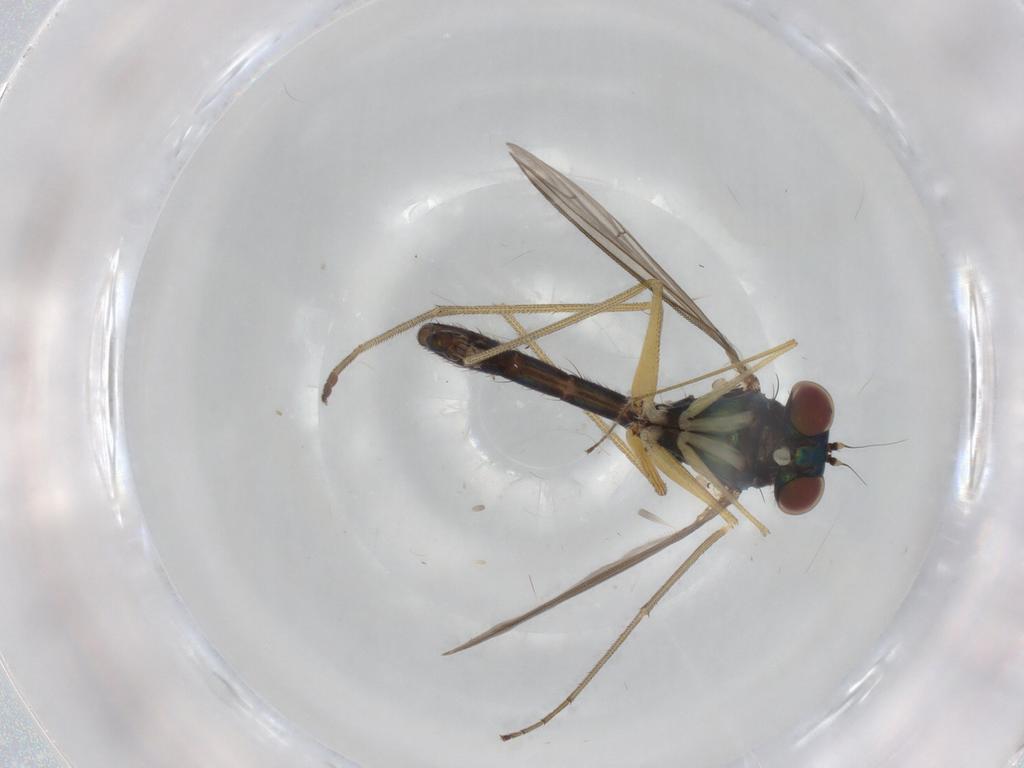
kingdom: Animalia
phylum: Arthropoda
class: Insecta
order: Diptera
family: Dolichopodidae
